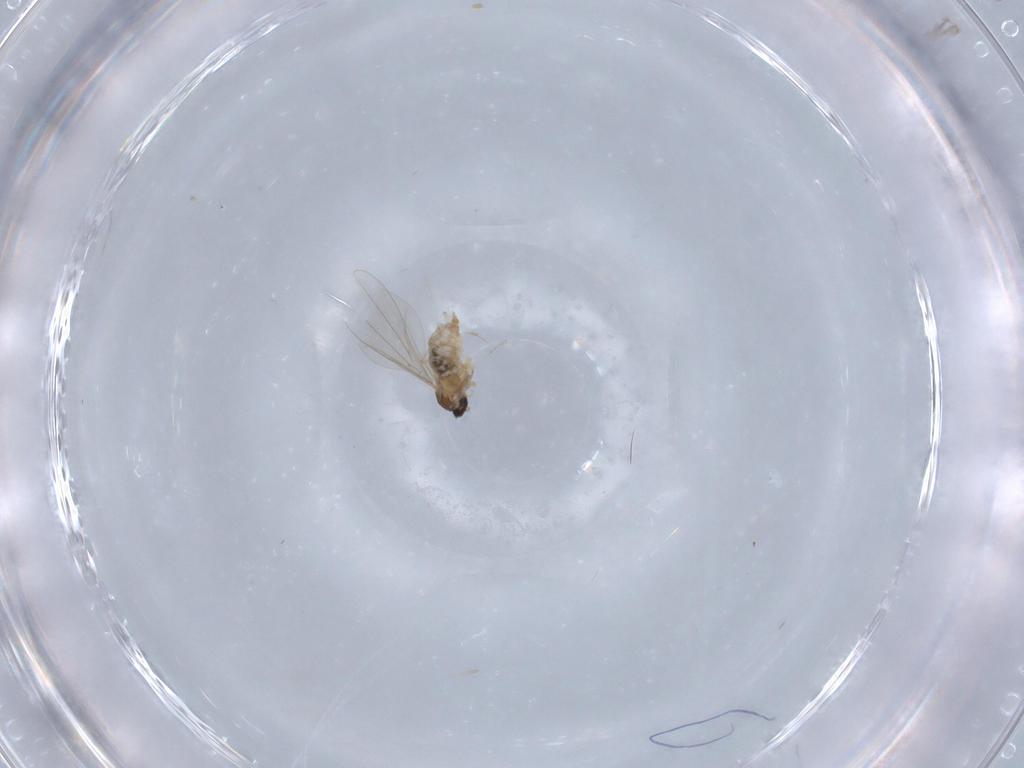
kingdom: Animalia
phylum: Arthropoda
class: Insecta
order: Diptera
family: Cecidomyiidae
